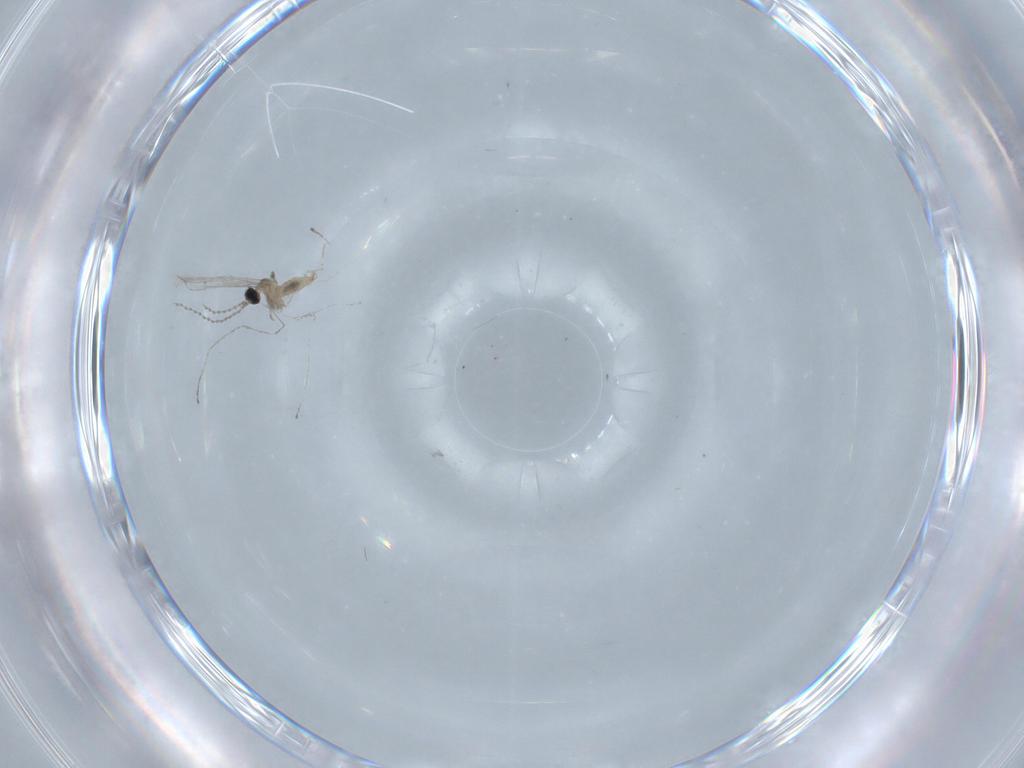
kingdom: Animalia
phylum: Arthropoda
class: Insecta
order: Diptera
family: Cecidomyiidae
